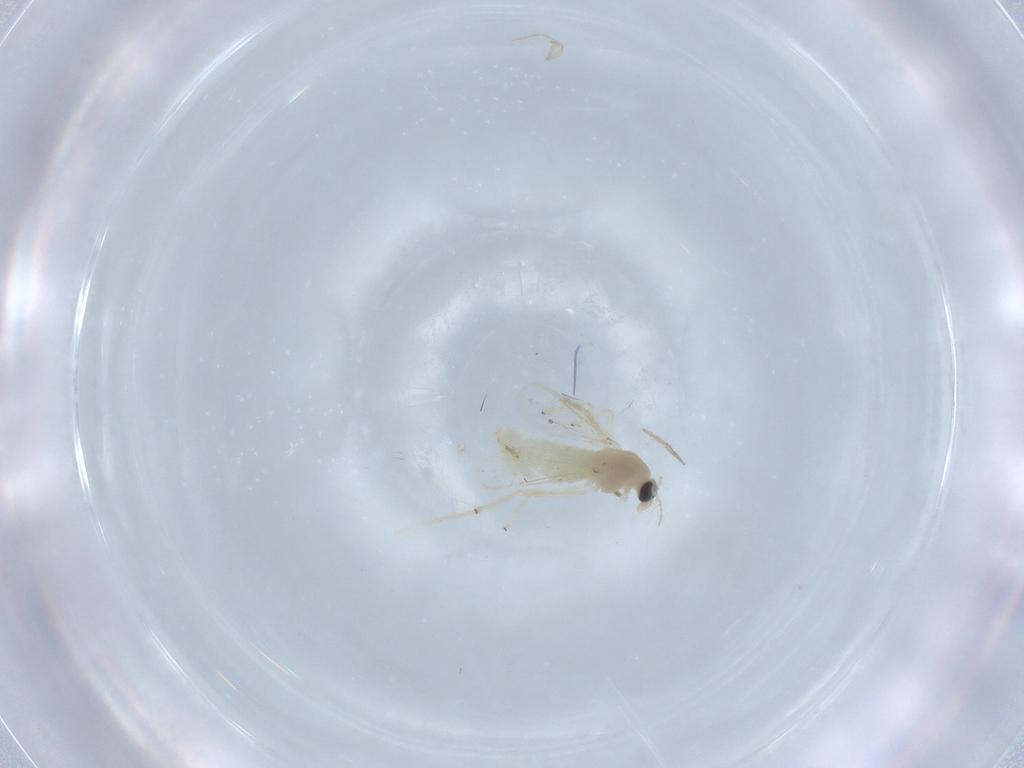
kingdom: Animalia
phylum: Arthropoda
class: Insecta
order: Diptera
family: Chironomidae
